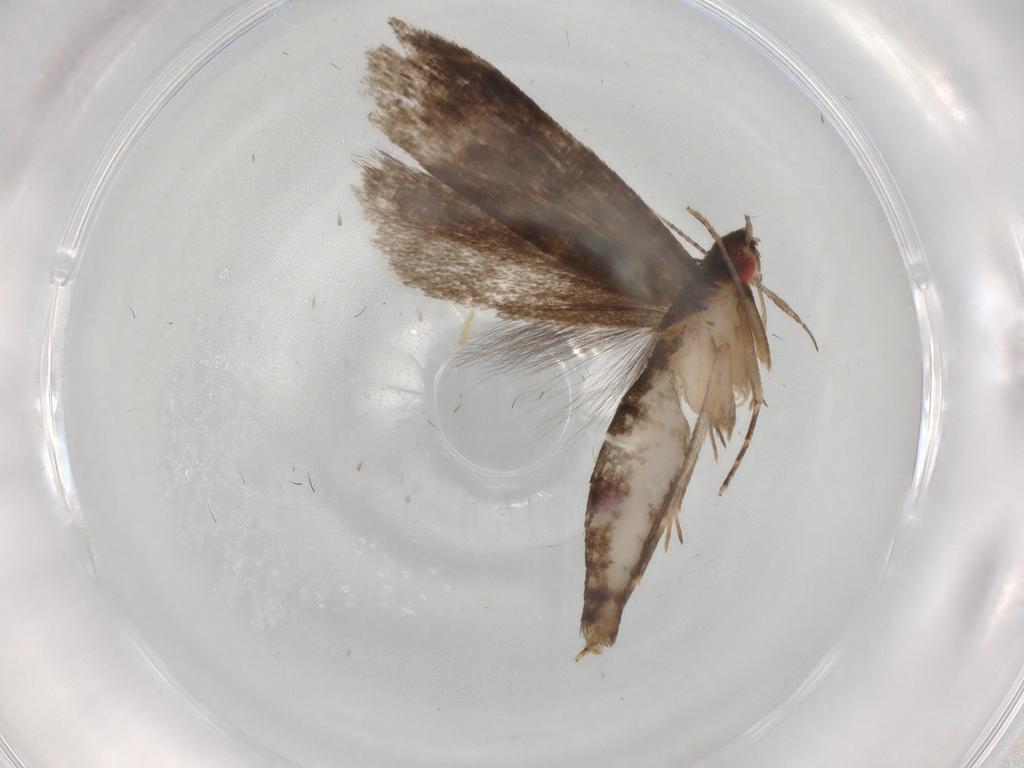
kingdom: Animalia
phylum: Arthropoda
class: Insecta
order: Lepidoptera
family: Gelechiidae
